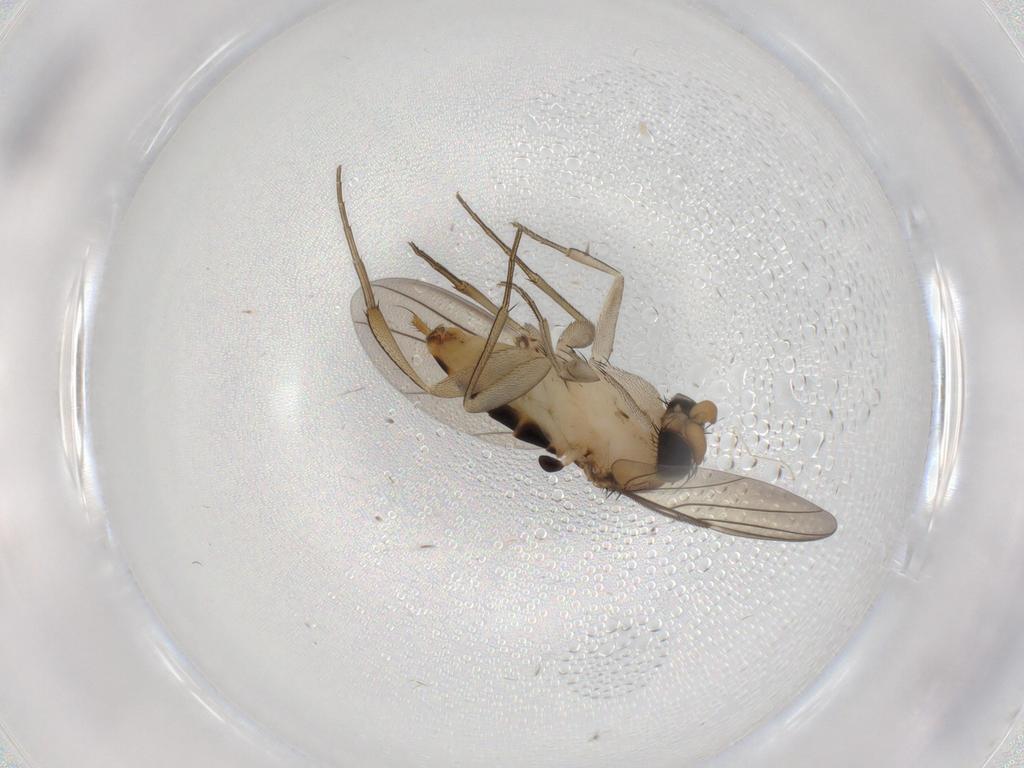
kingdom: Animalia
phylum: Arthropoda
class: Insecta
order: Diptera
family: Phoridae
